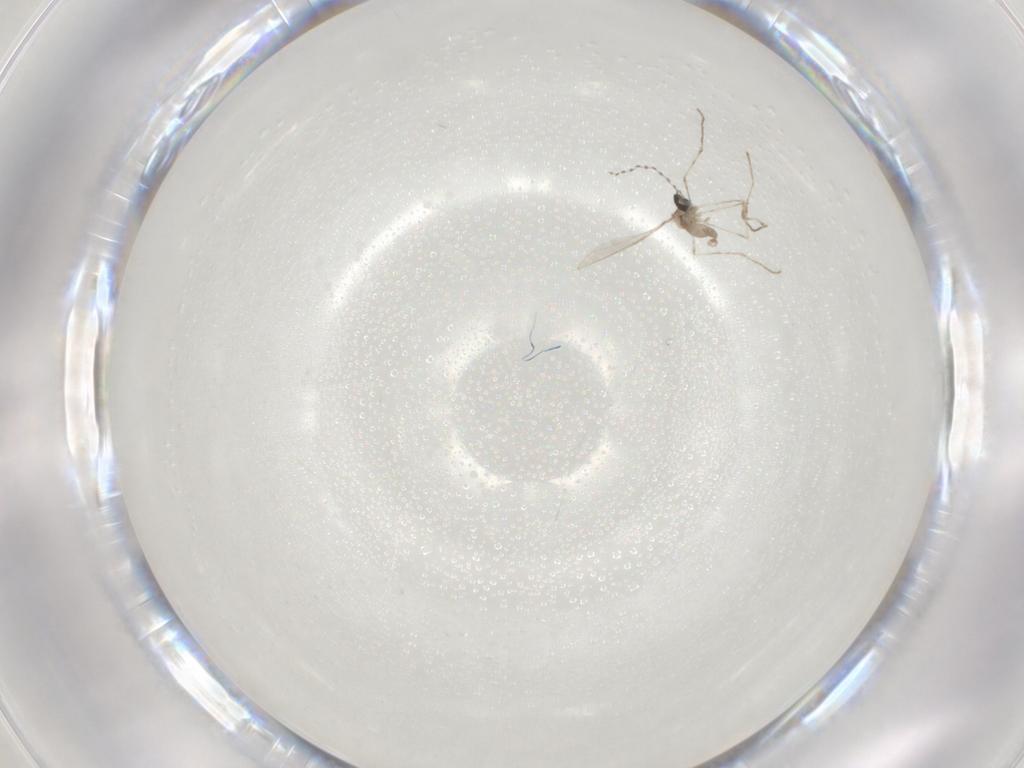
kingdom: Animalia
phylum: Arthropoda
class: Insecta
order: Diptera
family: Cecidomyiidae
